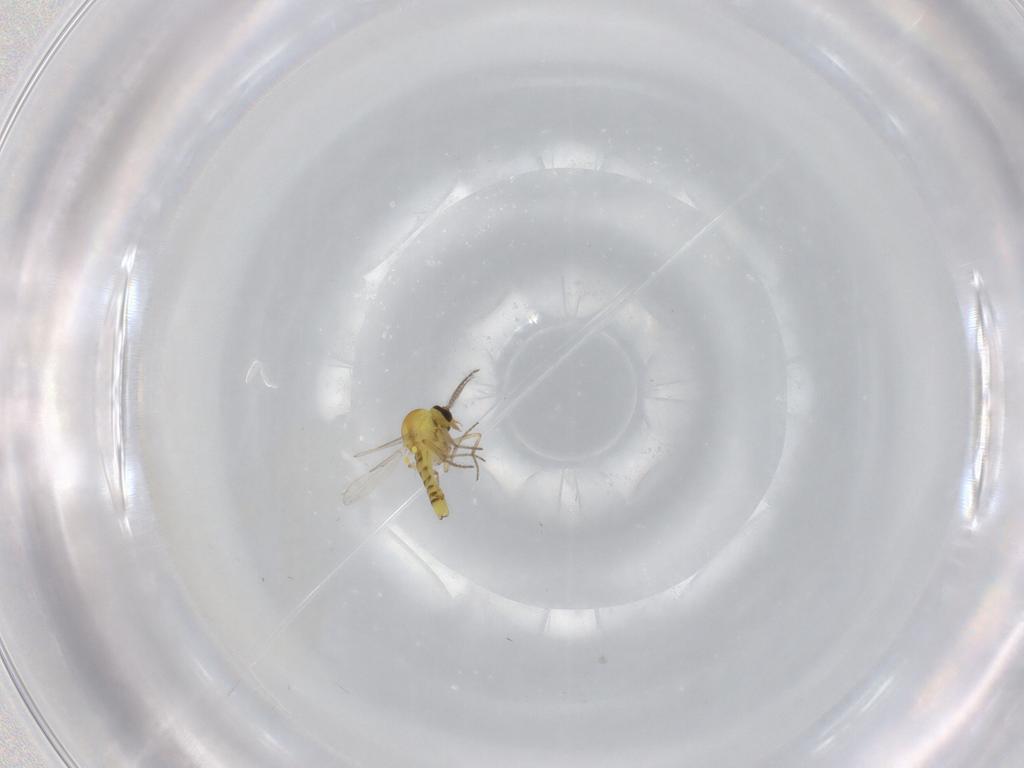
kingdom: Animalia
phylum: Arthropoda
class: Insecta
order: Diptera
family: Ceratopogonidae
